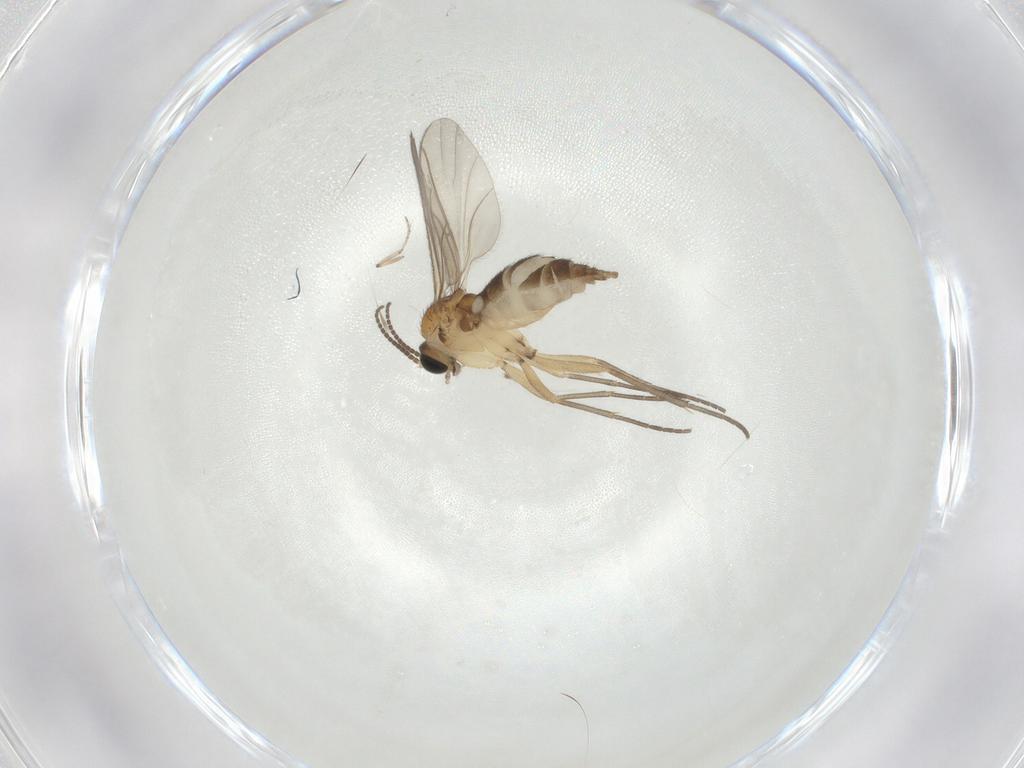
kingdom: Animalia
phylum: Arthropoda
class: Insecta
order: Diptera
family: Sciaridae
